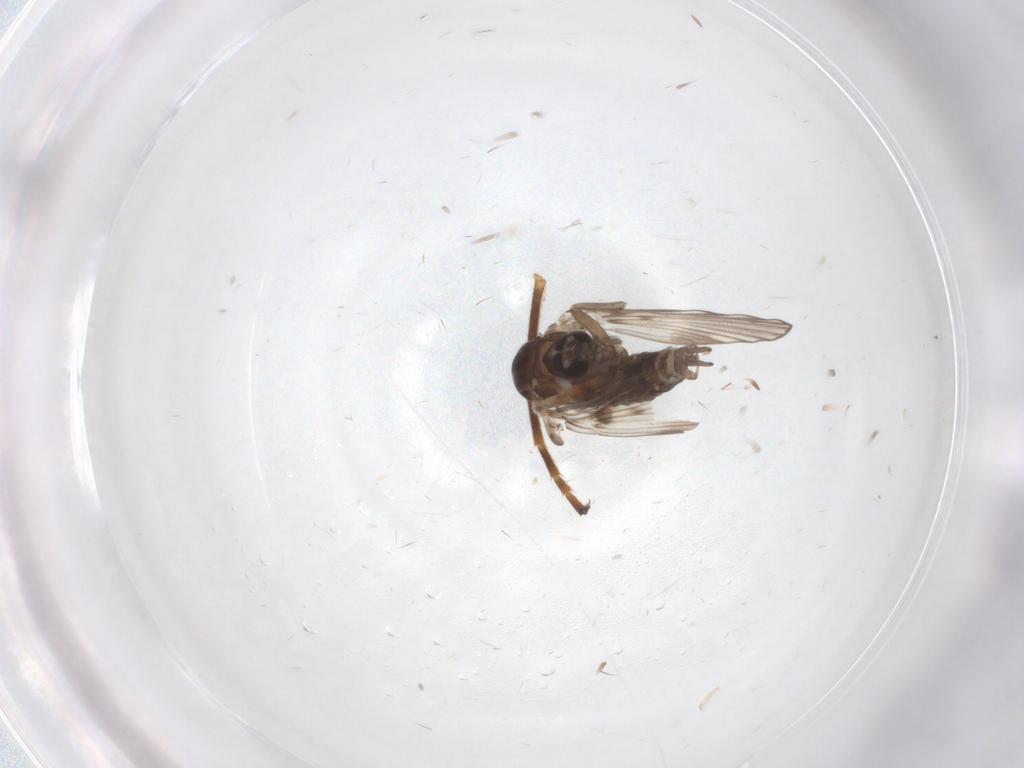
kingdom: Animalia
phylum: Arthropoda
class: Insecta
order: Diptera
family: Psychodidae
